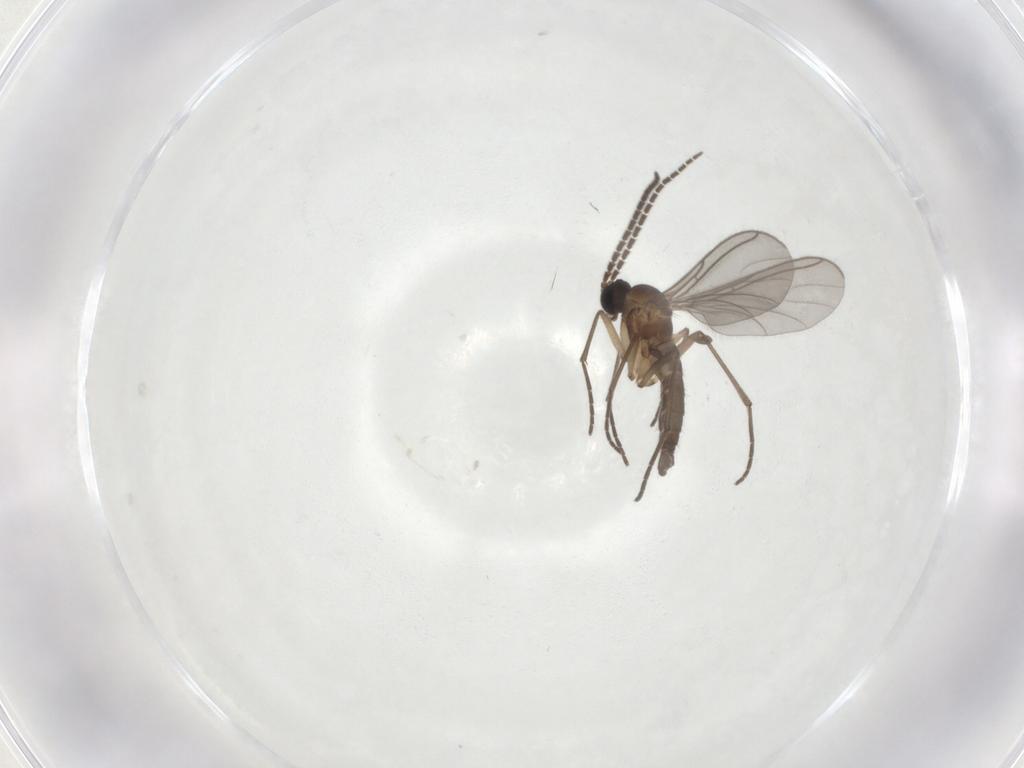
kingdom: Animalia
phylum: Arthropoda
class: Insecta
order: Diptera
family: Sciaridae
